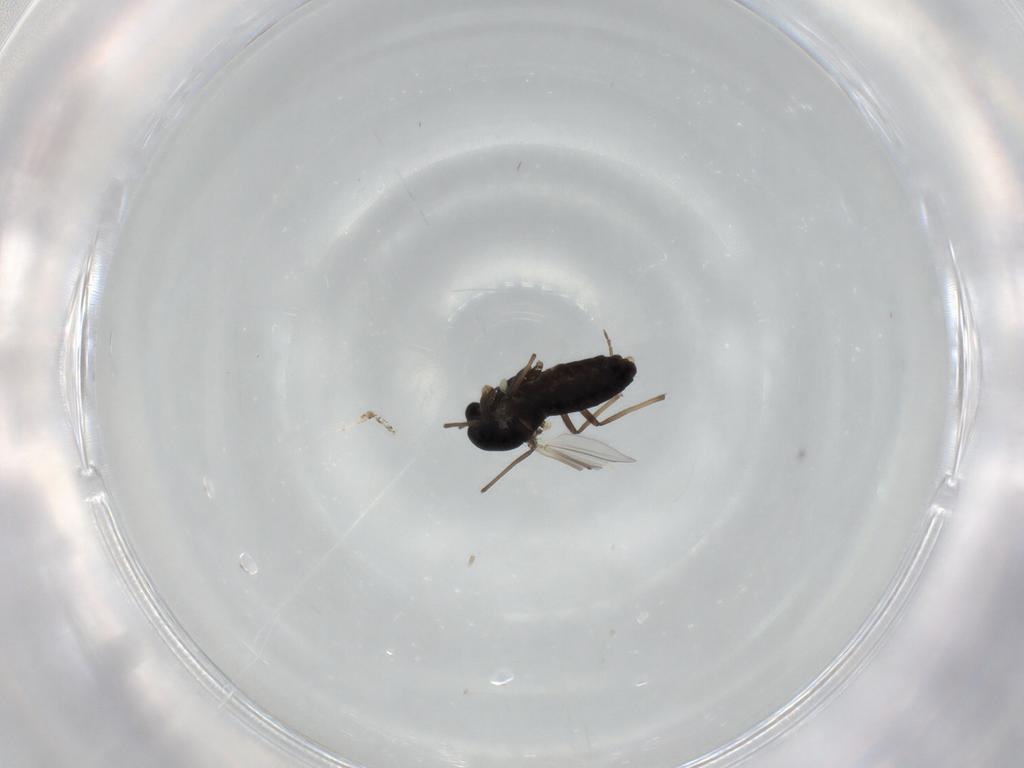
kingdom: Animalia
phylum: Arthropoda
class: Insecta
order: Diptera
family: Chironomidae
